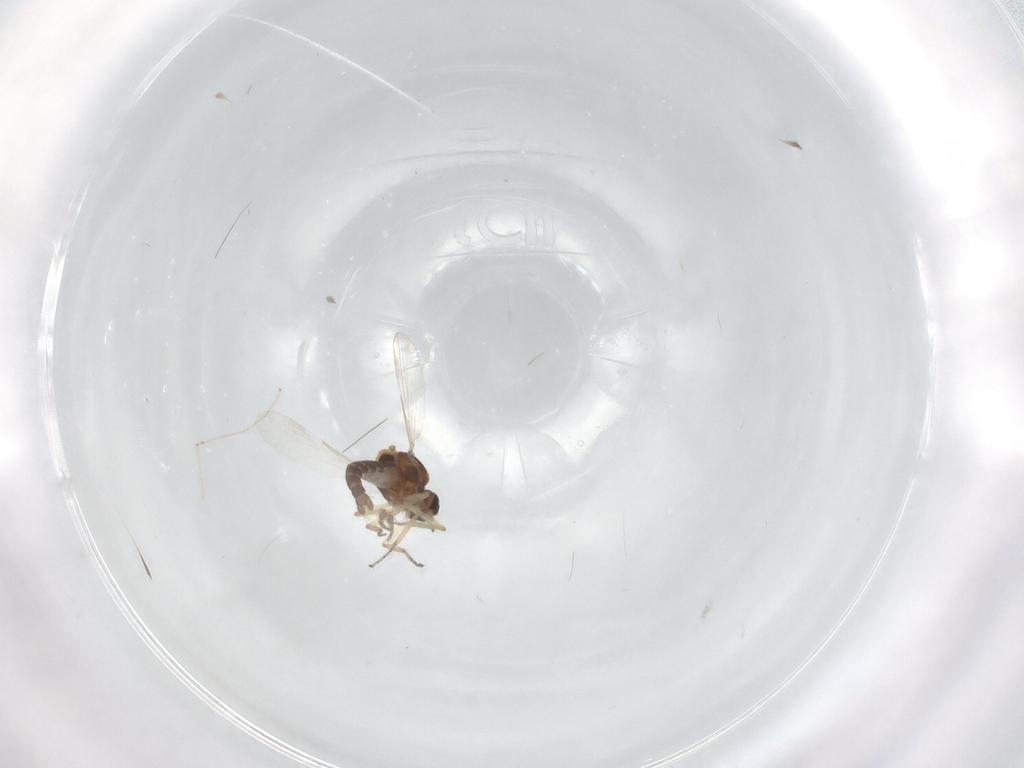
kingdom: Animalia
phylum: Arthropoda
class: Insecta
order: Diptera
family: Ceratopogonidae
